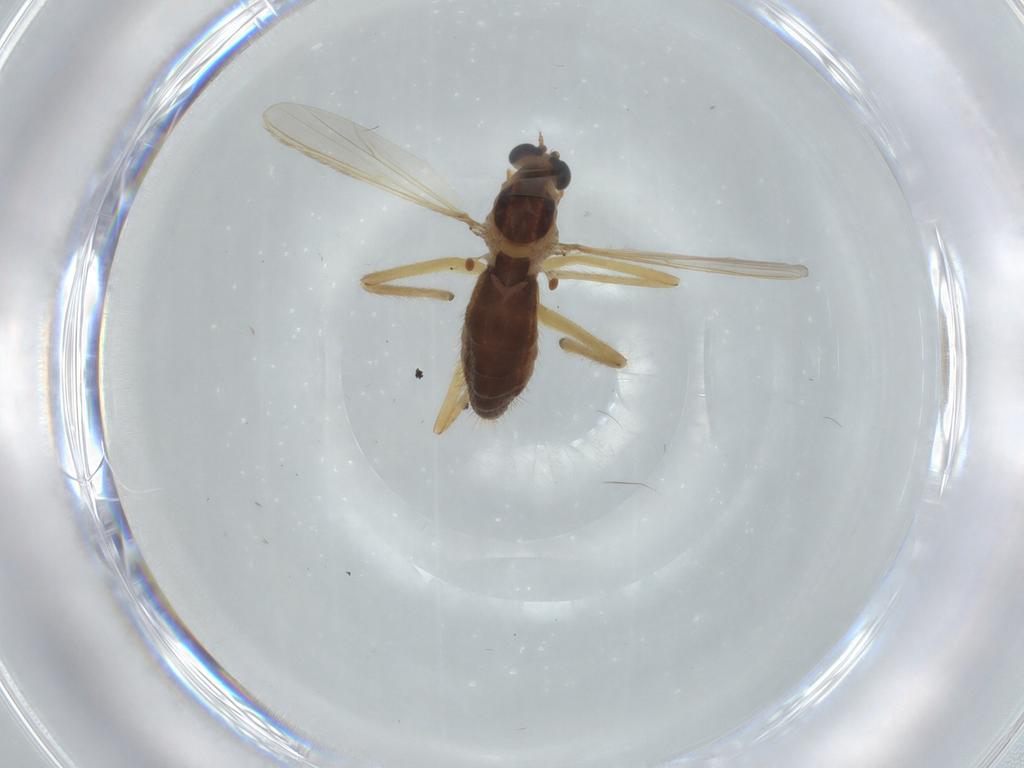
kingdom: Animalia
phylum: Arthropoda
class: Insecta
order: Diptera
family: Chironomidae
